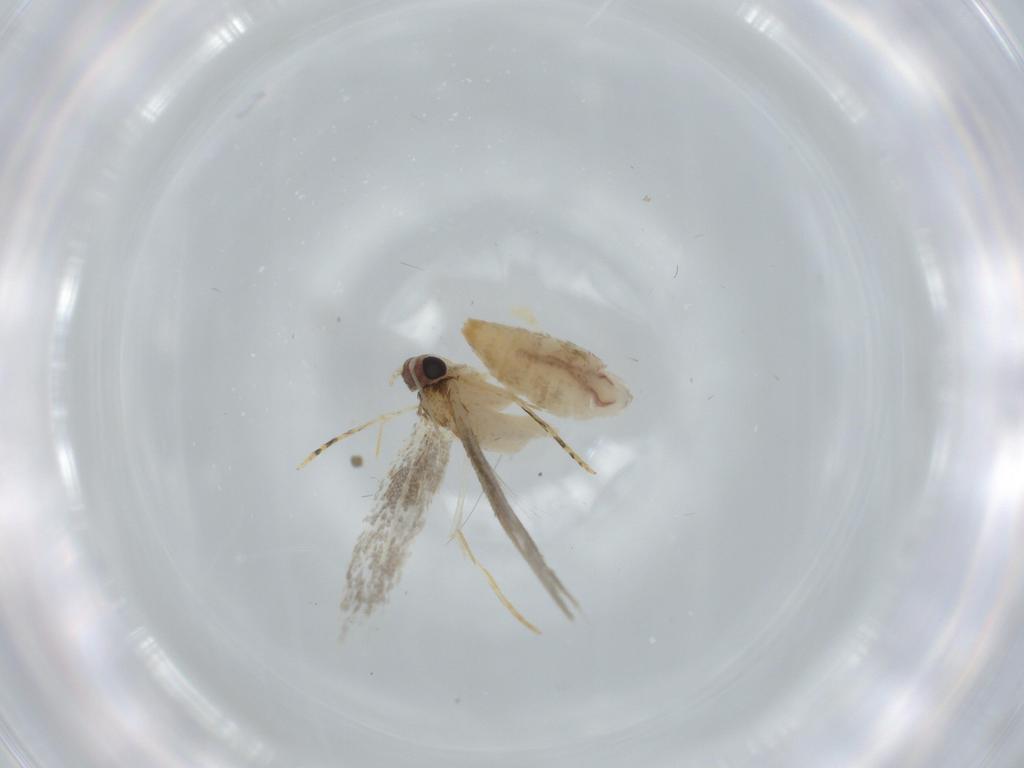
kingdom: Animalia
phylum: Arthropoda
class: Insecta
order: Lepidoptera
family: Tineidae
